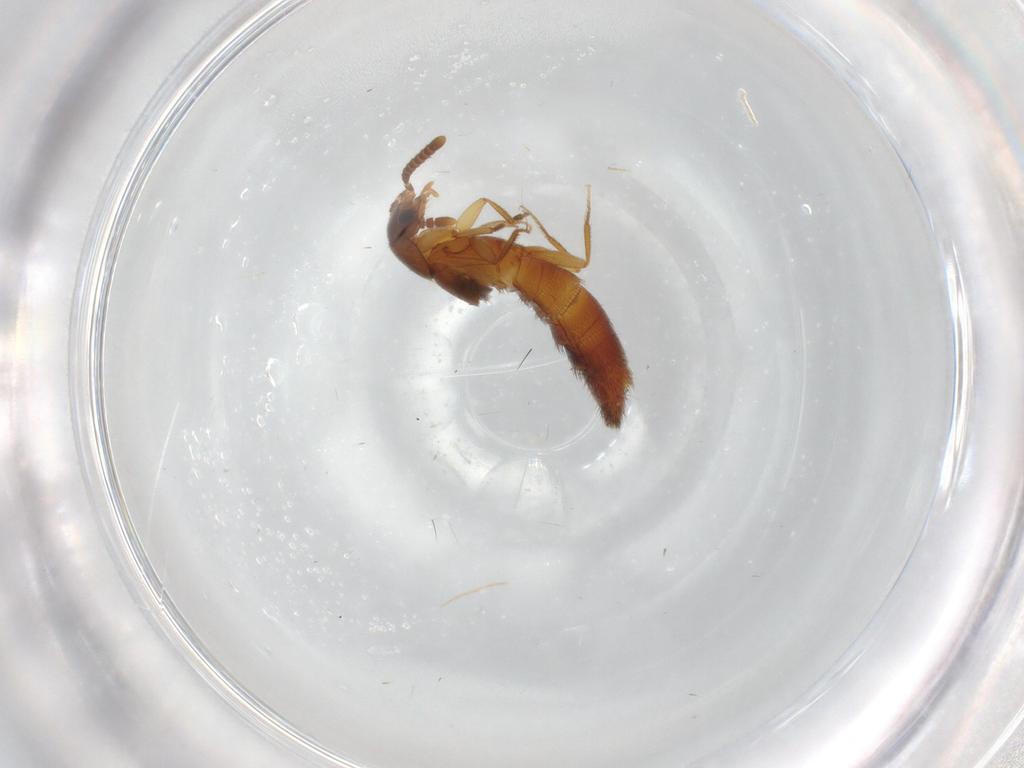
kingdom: Animalia
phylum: Arthropoda
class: Insecta
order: Coleoptera
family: Staphylinidae
